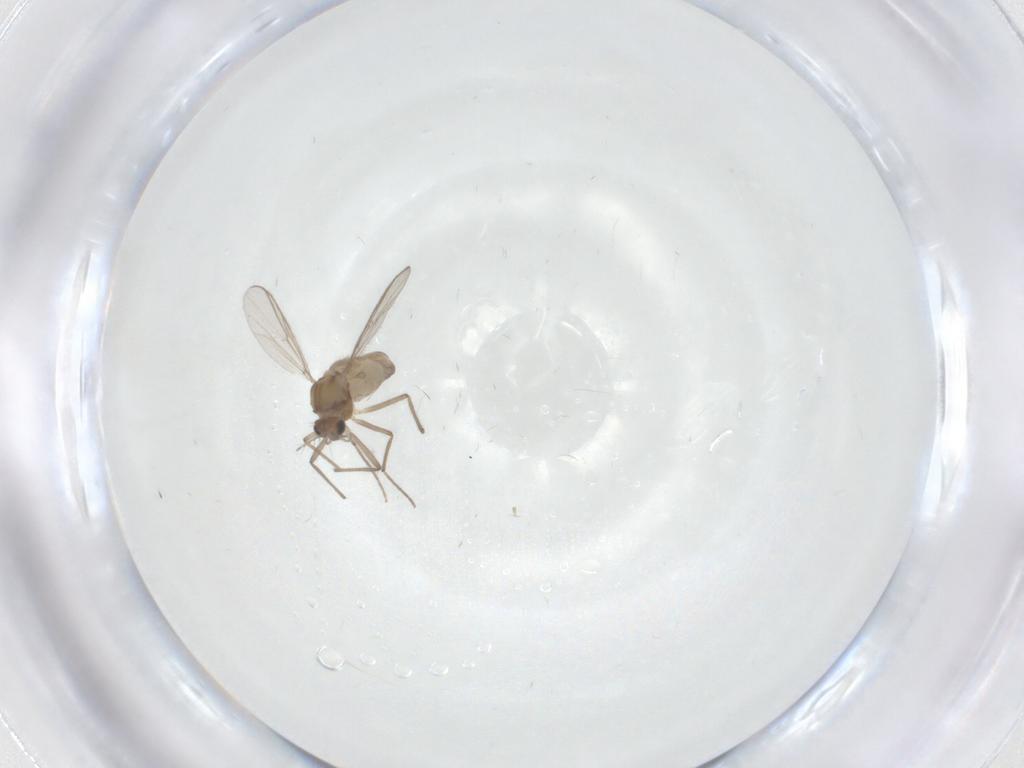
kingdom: Animalia
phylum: Arthropoda
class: Insecta
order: Diptera
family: Chironomidae
